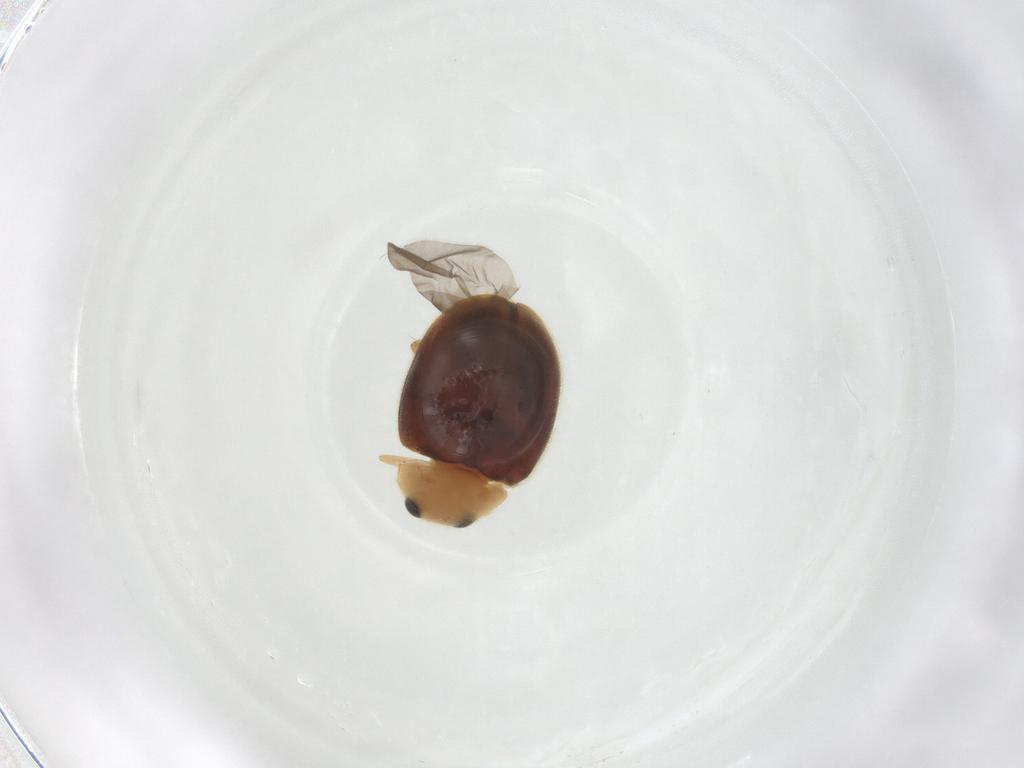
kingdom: Animalia
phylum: Arthropoda
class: Insecta
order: Coleoptera
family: Coccinellidae
